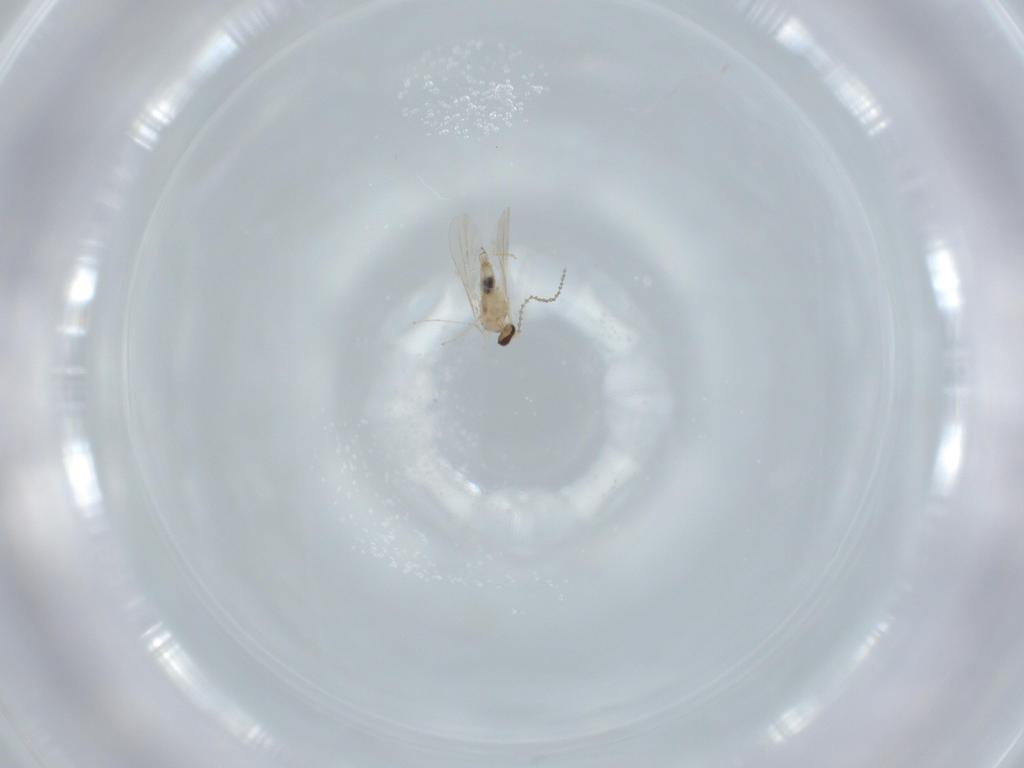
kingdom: Animalia
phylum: Arthropoda
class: Insecta
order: Diptera
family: Cecidomyiidae
